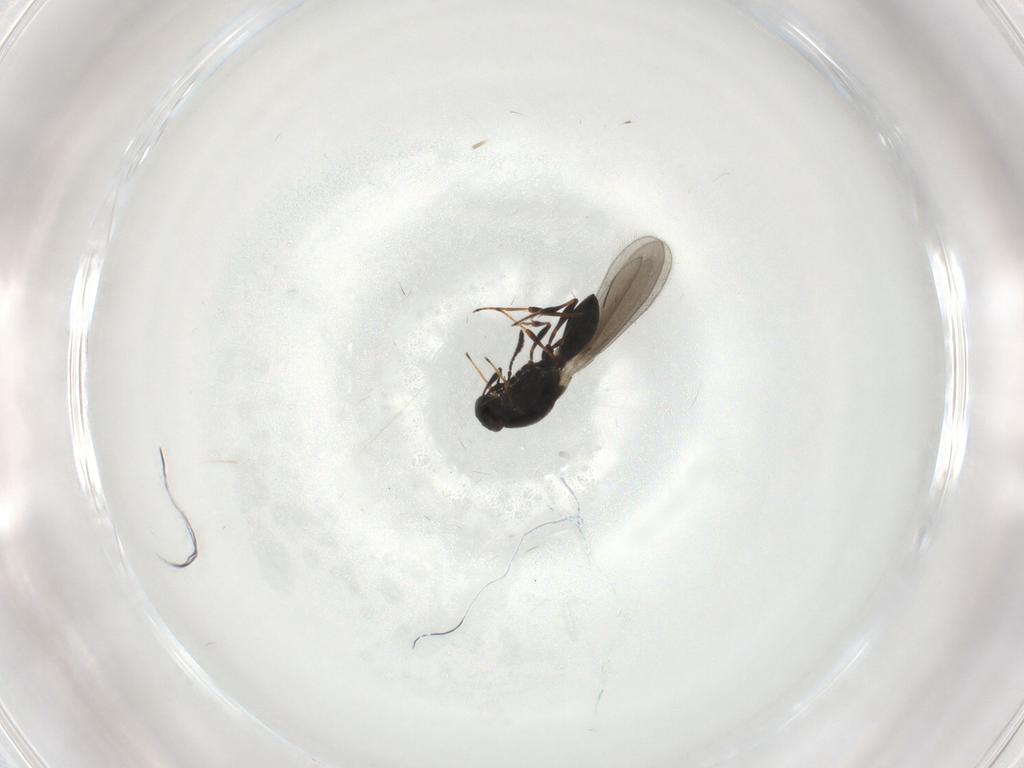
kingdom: Animalia
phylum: Arthropoda
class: Insecta
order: Hymenoptera
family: Platygastridae
